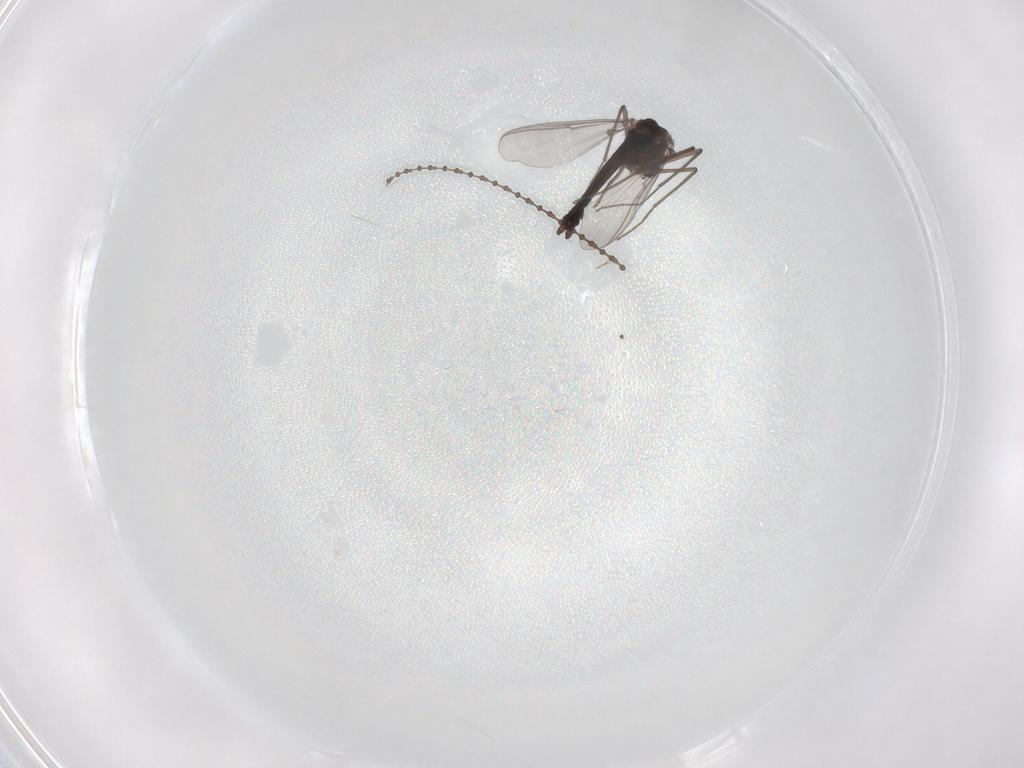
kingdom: Animalia
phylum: Arthropoda
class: Insecta
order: Diptera
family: Chironomidae
